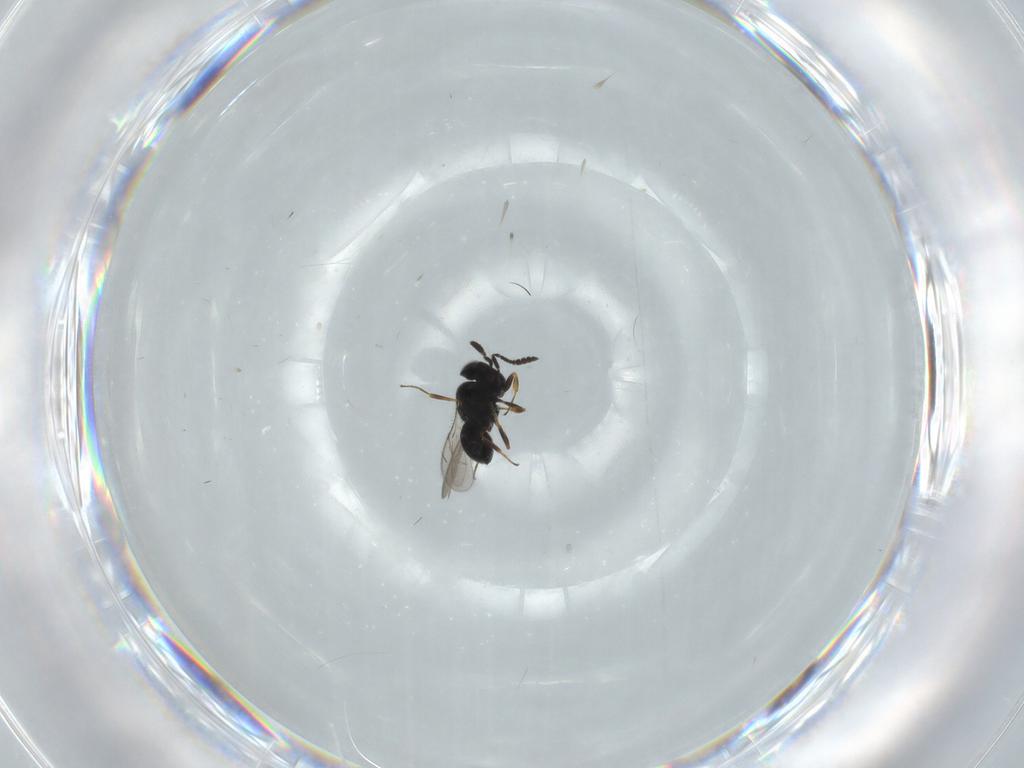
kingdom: Animalia
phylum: Arthropoda
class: Insecta
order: Hymenoptera
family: Scelionidae
